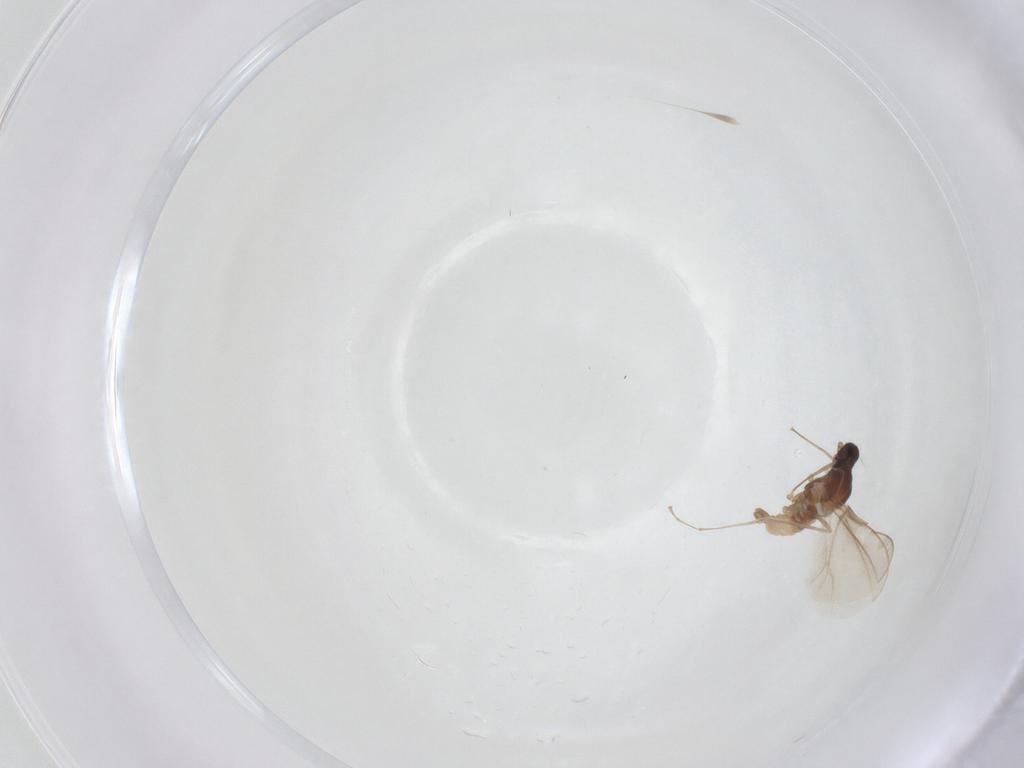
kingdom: Animalia
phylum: Arthropoda
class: Insecta
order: Diptera
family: Cecidomyiidae
